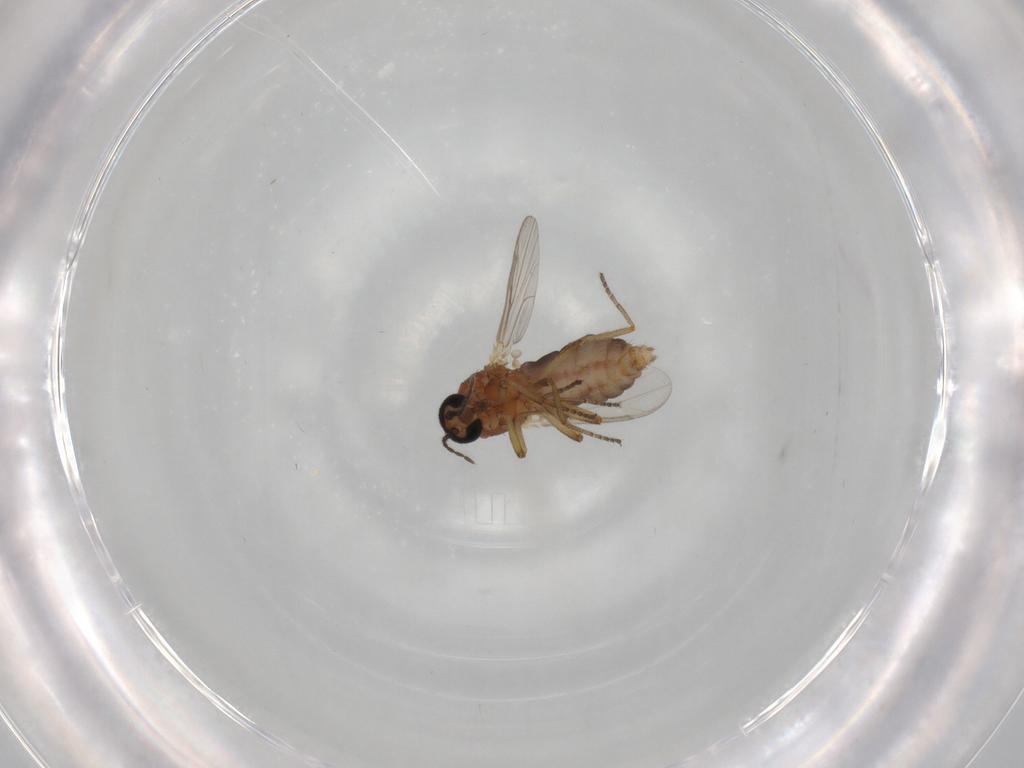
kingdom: Animalia
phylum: Arthropoda
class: Insecta
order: Diptera
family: Ceratopogonidae
